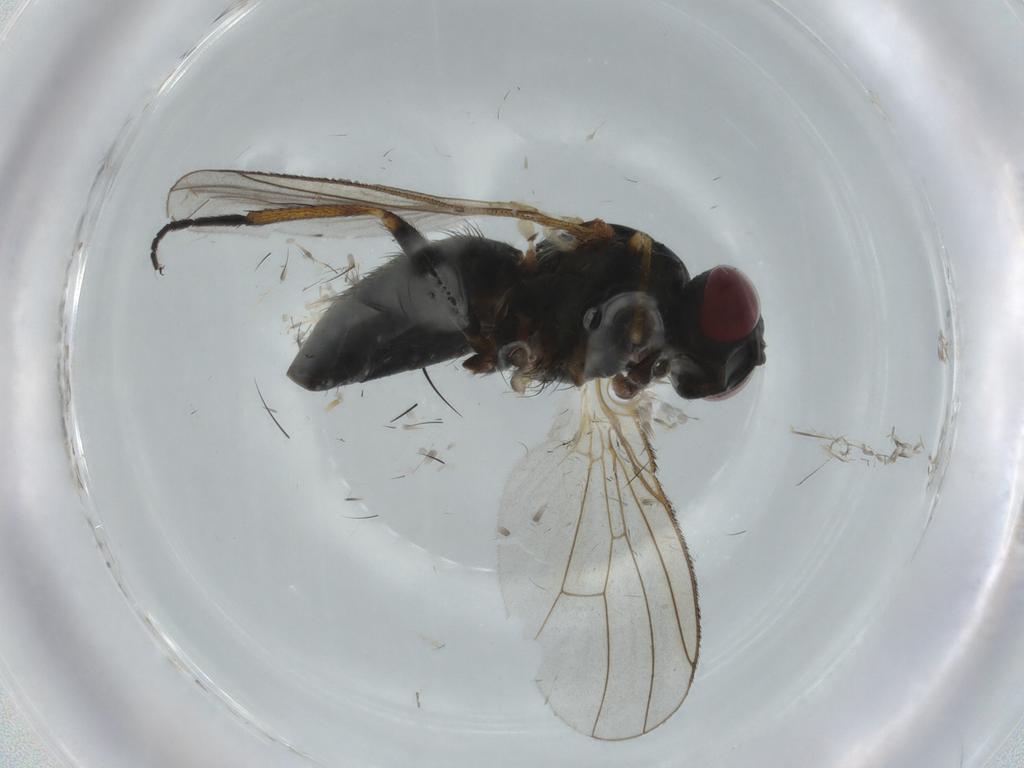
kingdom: Animalia
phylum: Arthropoda
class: Insecta
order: Diptera
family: Muscidae
